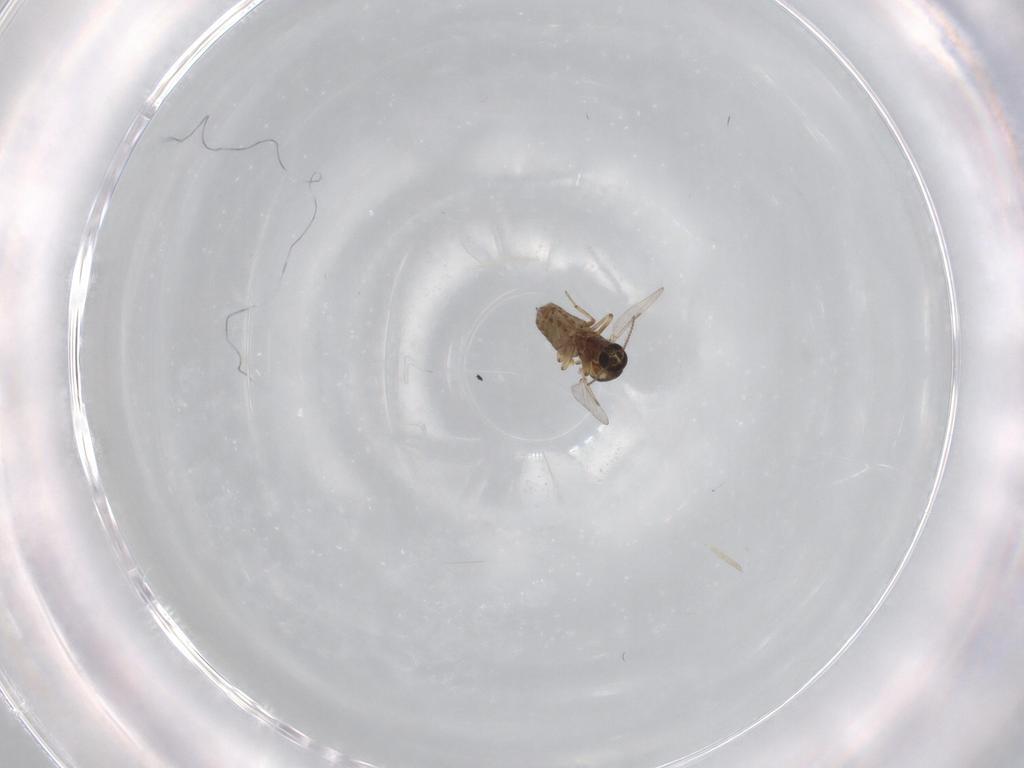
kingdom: Animalia
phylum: Arthropoda
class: Insecta
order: Diptera
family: Ceratopogonidae
